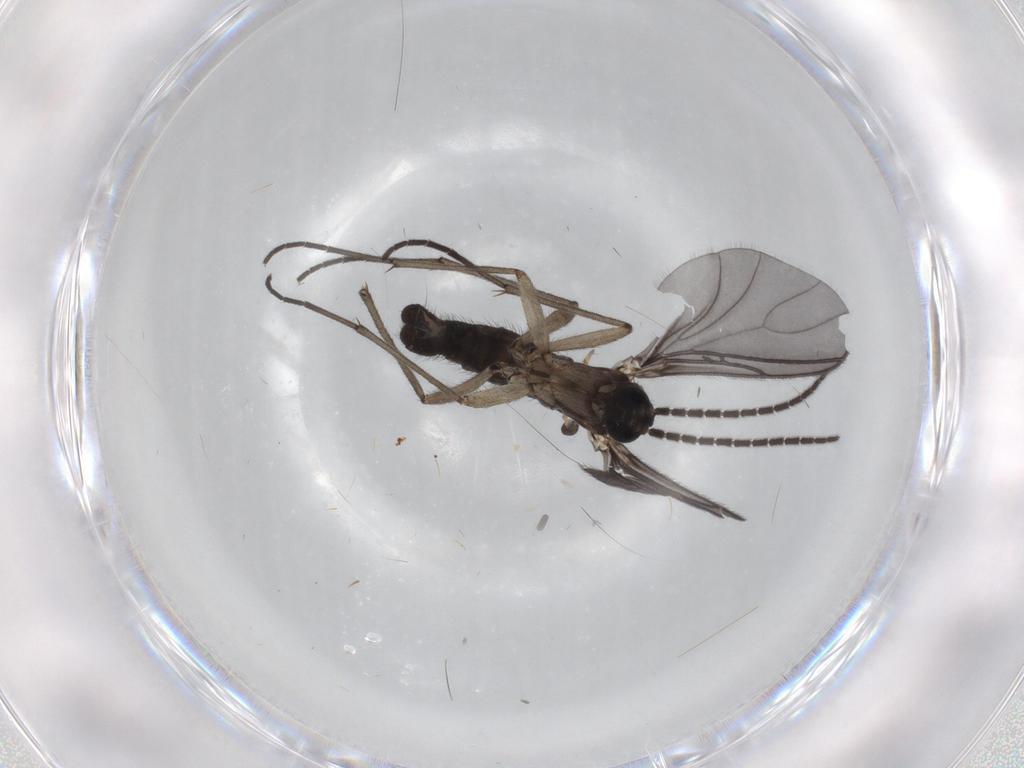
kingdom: Animalia
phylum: Arthropoda
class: Insecta
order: Diptera
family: Sciaridae
